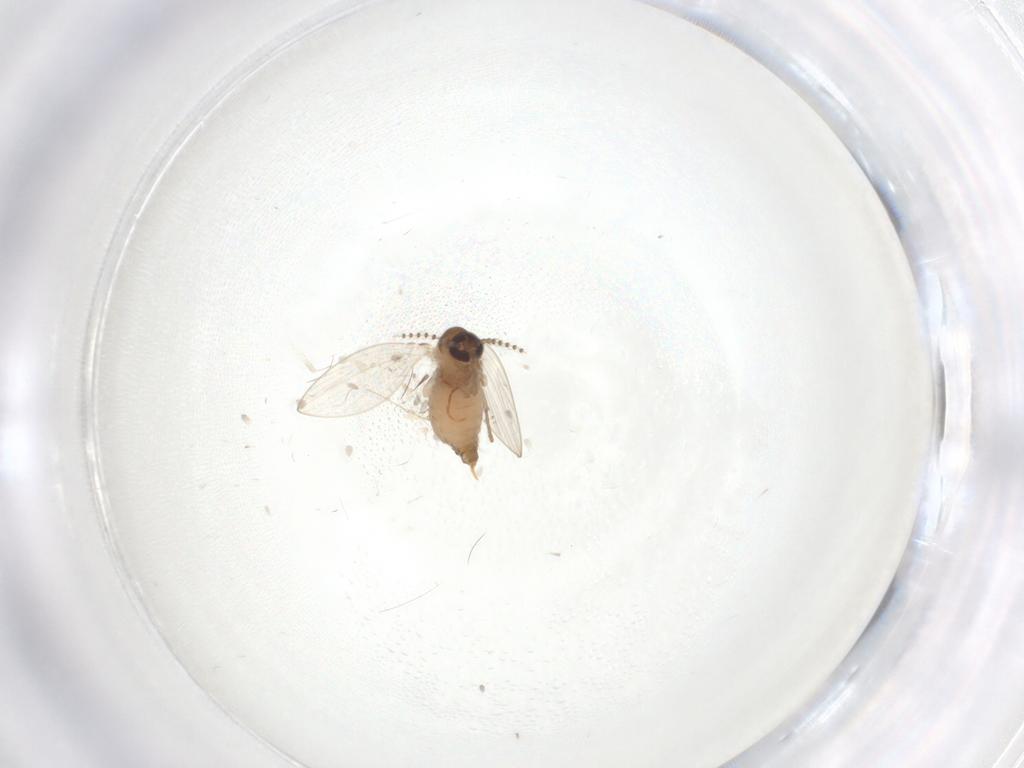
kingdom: Animalia
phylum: Arthropoda
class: Insecta
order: Diptera
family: Psychodidae
